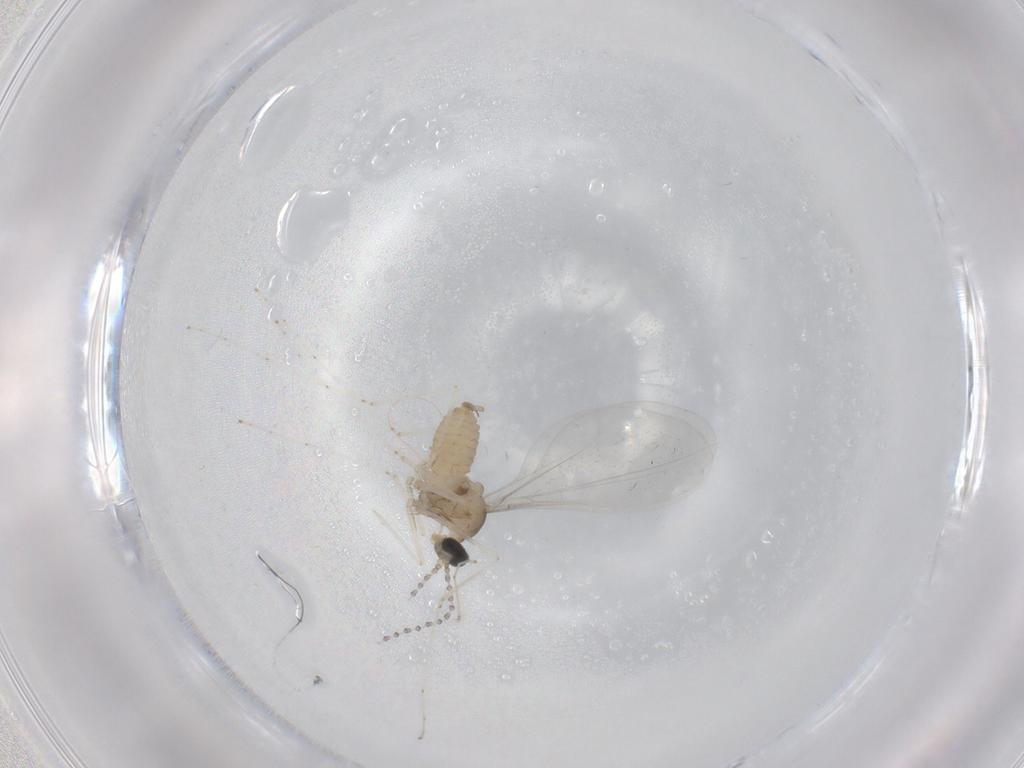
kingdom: Animalia
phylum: Arthropoda
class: Insecta
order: Diptera
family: Cecidomyiidae
